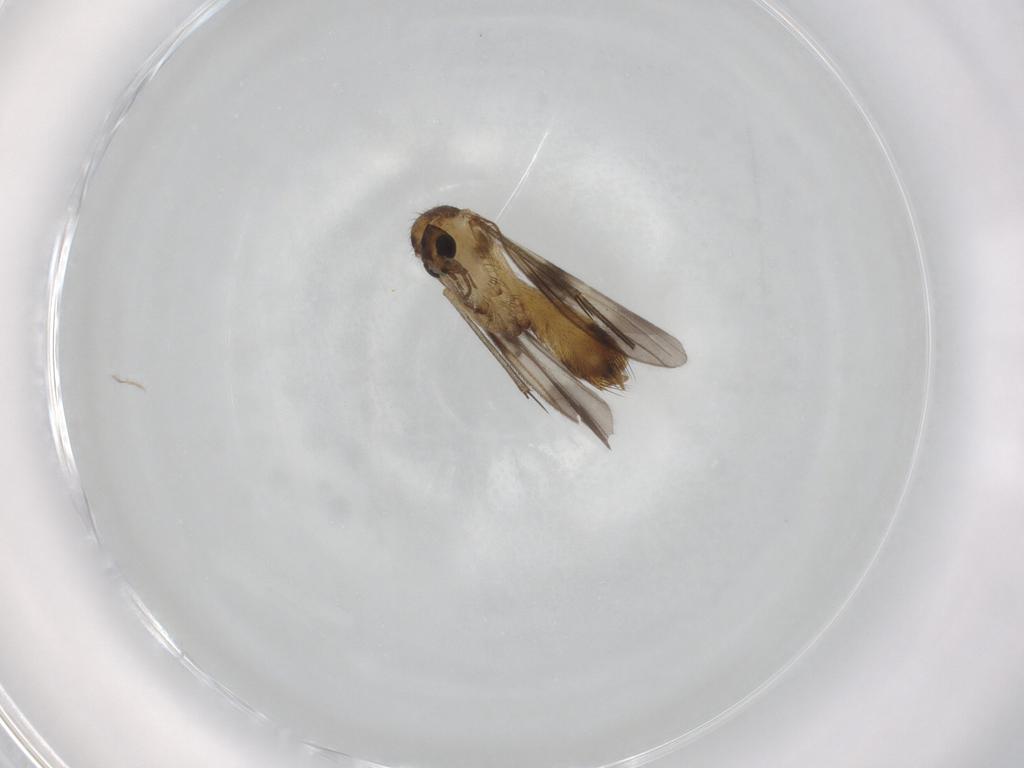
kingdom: Animalia
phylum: Arthropoda
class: Insecta
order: Diptera
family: Mycetophilidae
